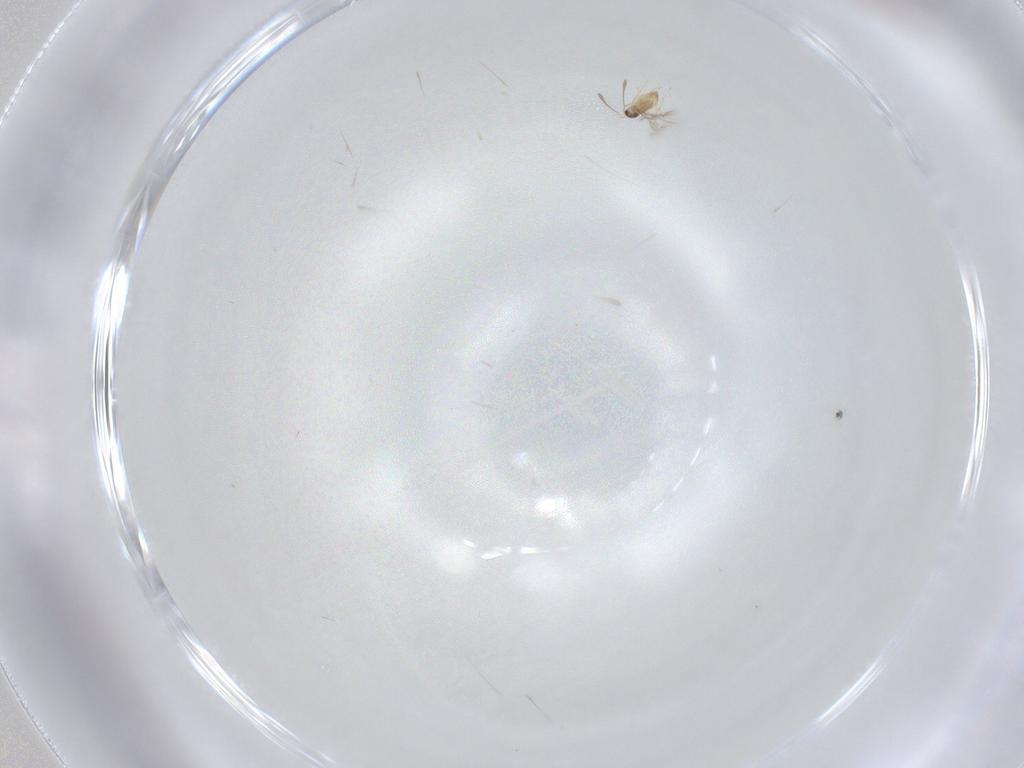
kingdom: Animalia
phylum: Arthropoda
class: Insecta
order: Hymenoptera
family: Mymaridae
